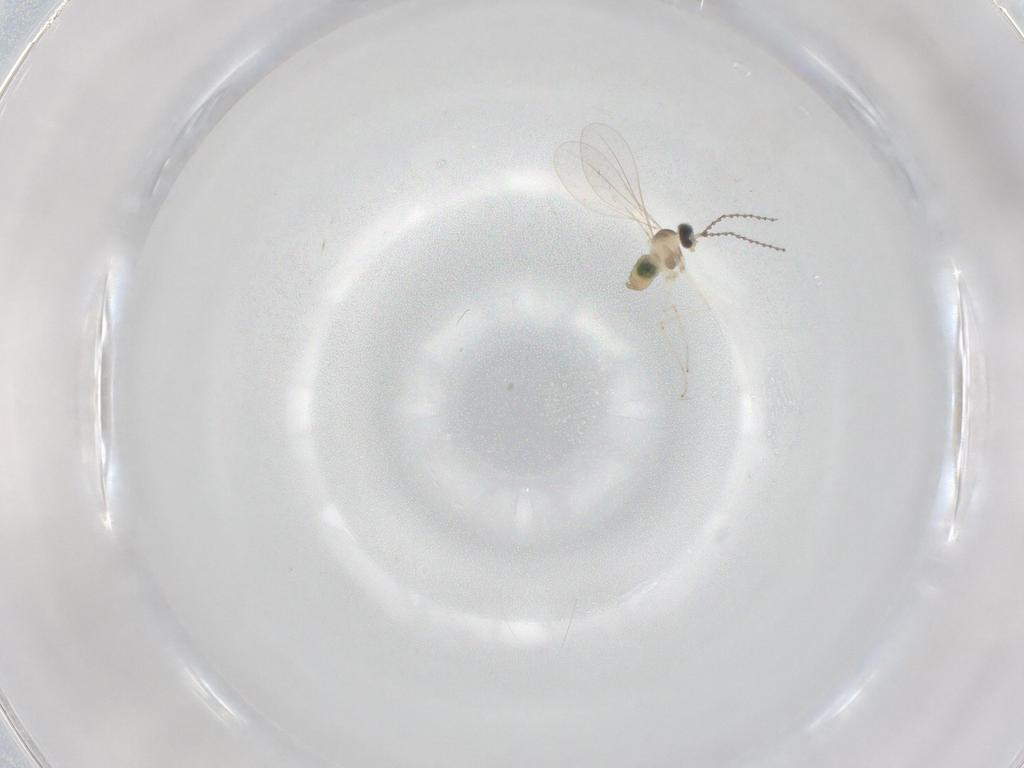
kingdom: Animalia
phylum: Arthropoda
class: Insecta
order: Diptera
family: Cecidomyiidae
